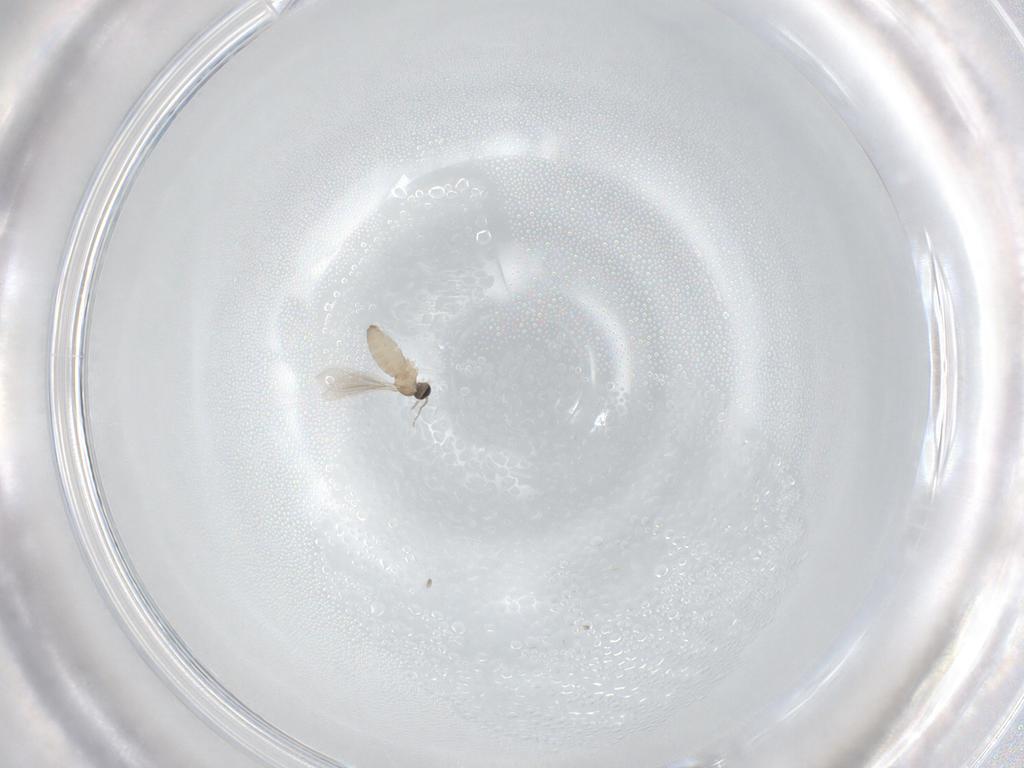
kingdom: Animalia
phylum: Arthropoda
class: Insecta
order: Diptera
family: Cecidomyiidae
